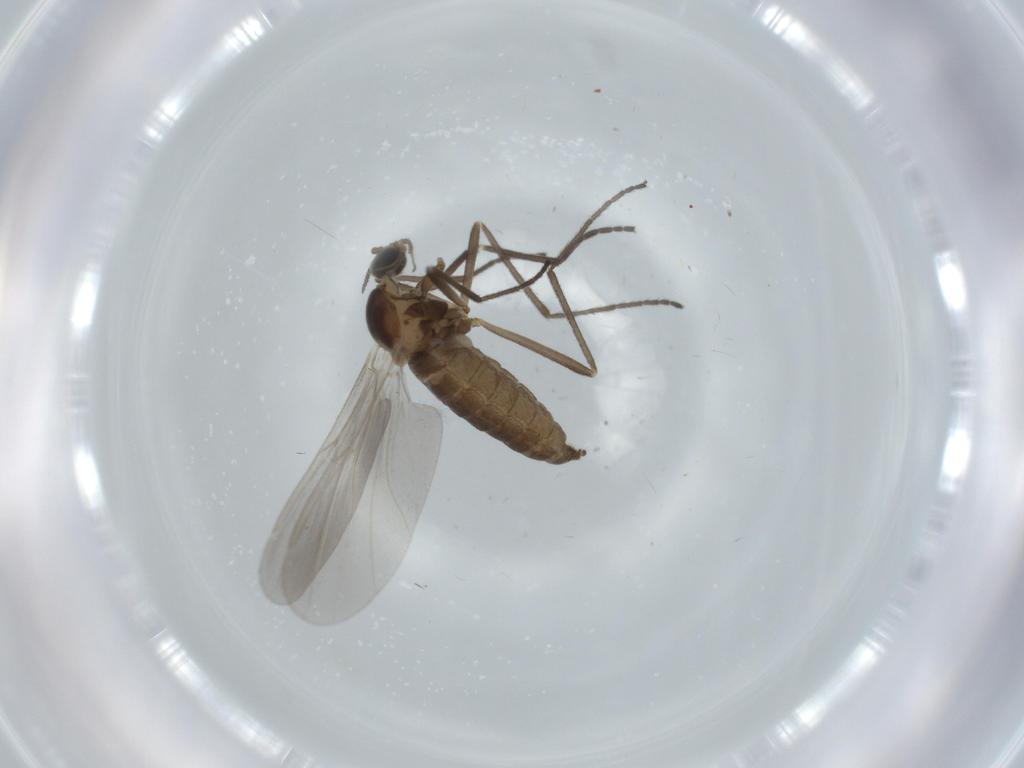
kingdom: Animalia
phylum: Arthropoda
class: Insecta
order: Diptera
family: Cecidomyiidae
